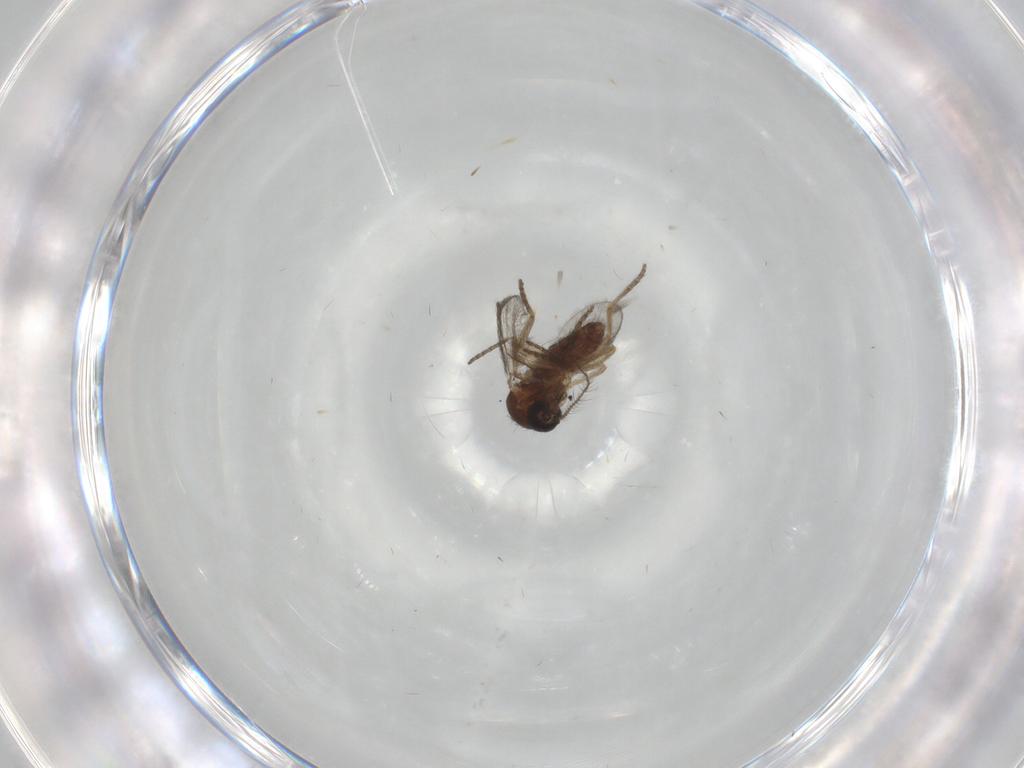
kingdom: Animalia
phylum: Arthropoda
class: Insecta
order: Diptera
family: Ceratopogonidae
